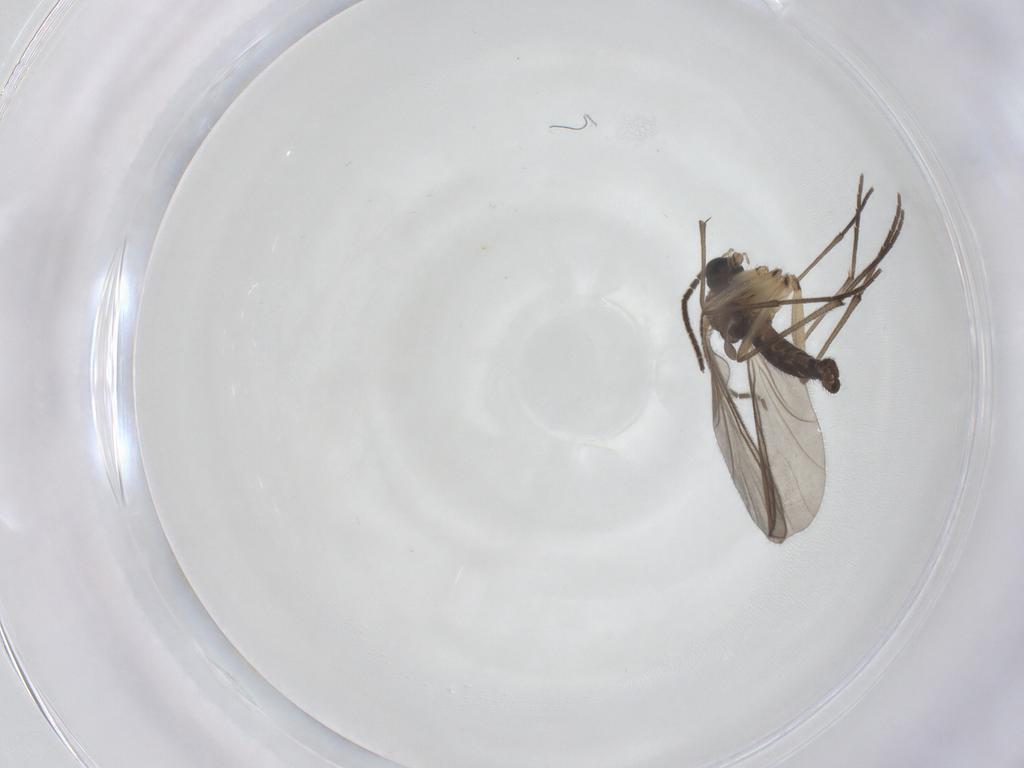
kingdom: Animalia
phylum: Arthropoda
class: Insecta
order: Diptera
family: Sciaridae
